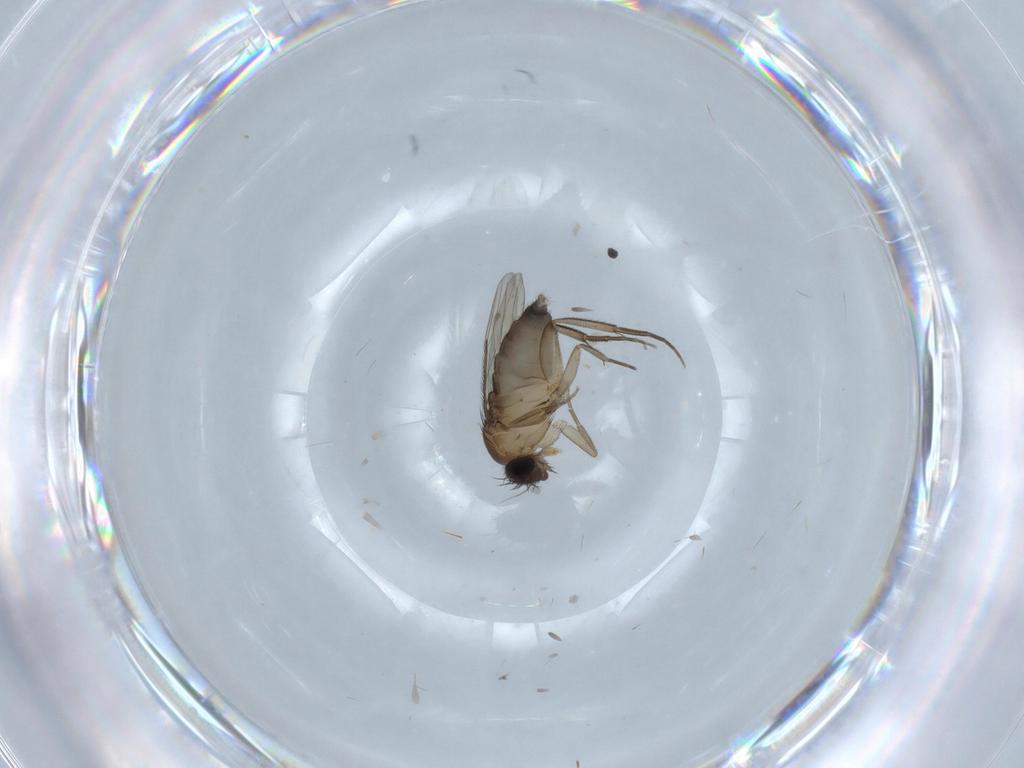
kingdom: Animalia
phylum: Arthropoda
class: Insecta
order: Diptera
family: Phoridae
